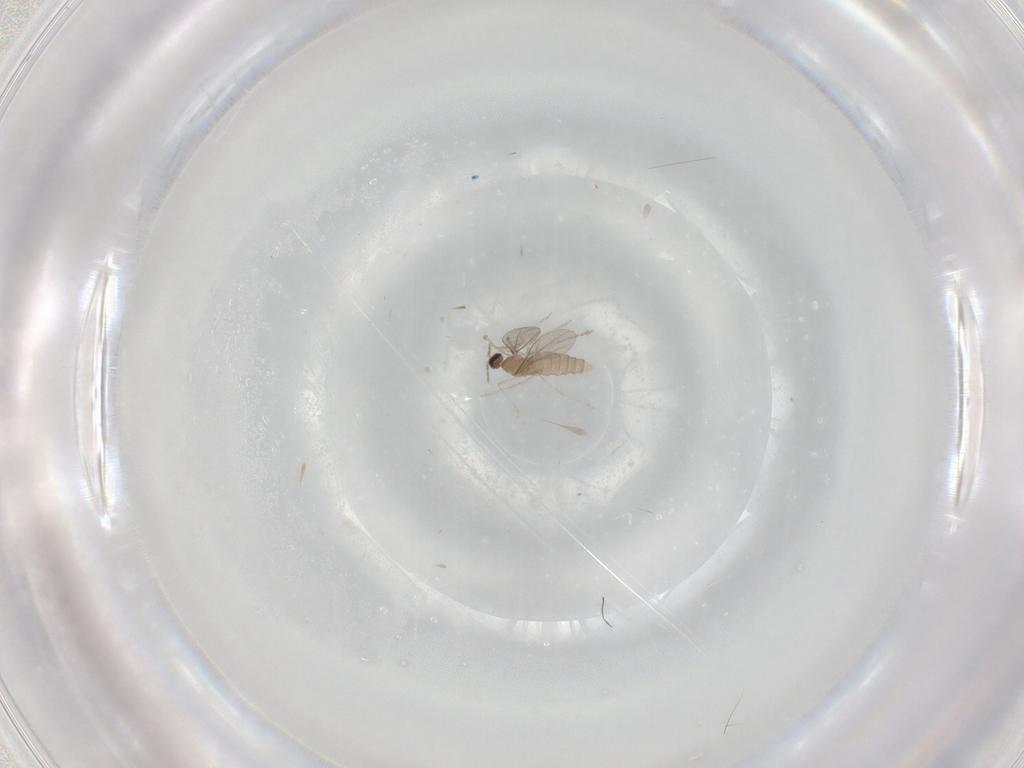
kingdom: Animalia
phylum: Arthropoda
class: Insecta
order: Diptera
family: Cecidomyiidae
